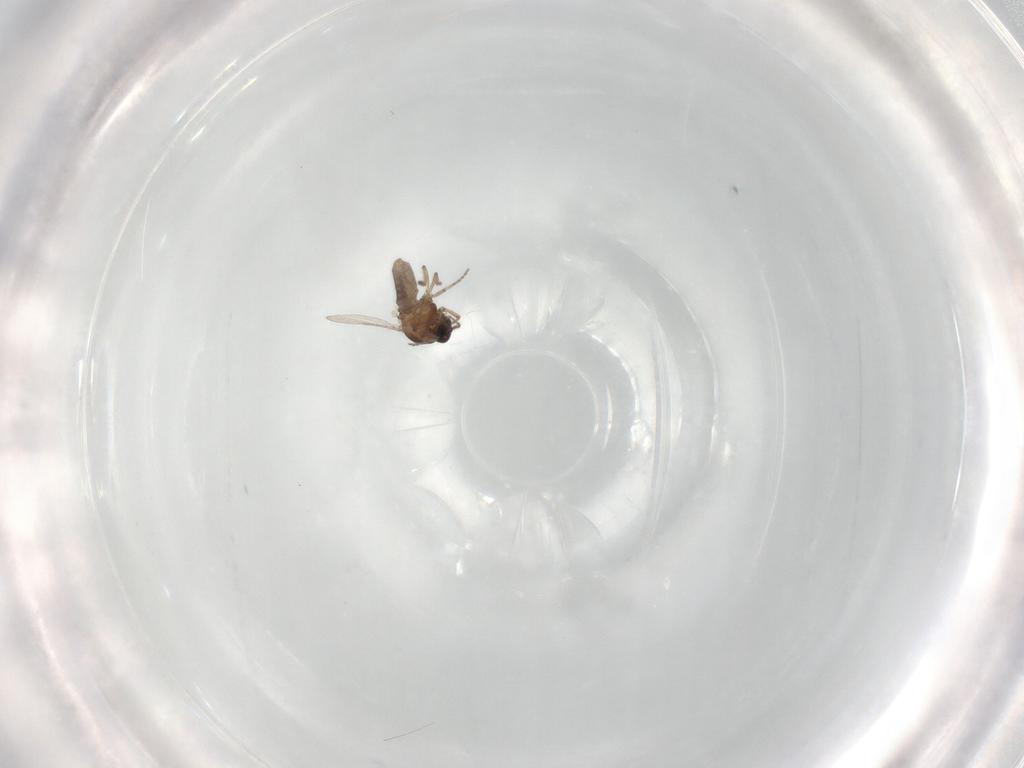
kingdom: Animalia
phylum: Arthropoda
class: Insecta
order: Diptera
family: Ceratopogonidae
